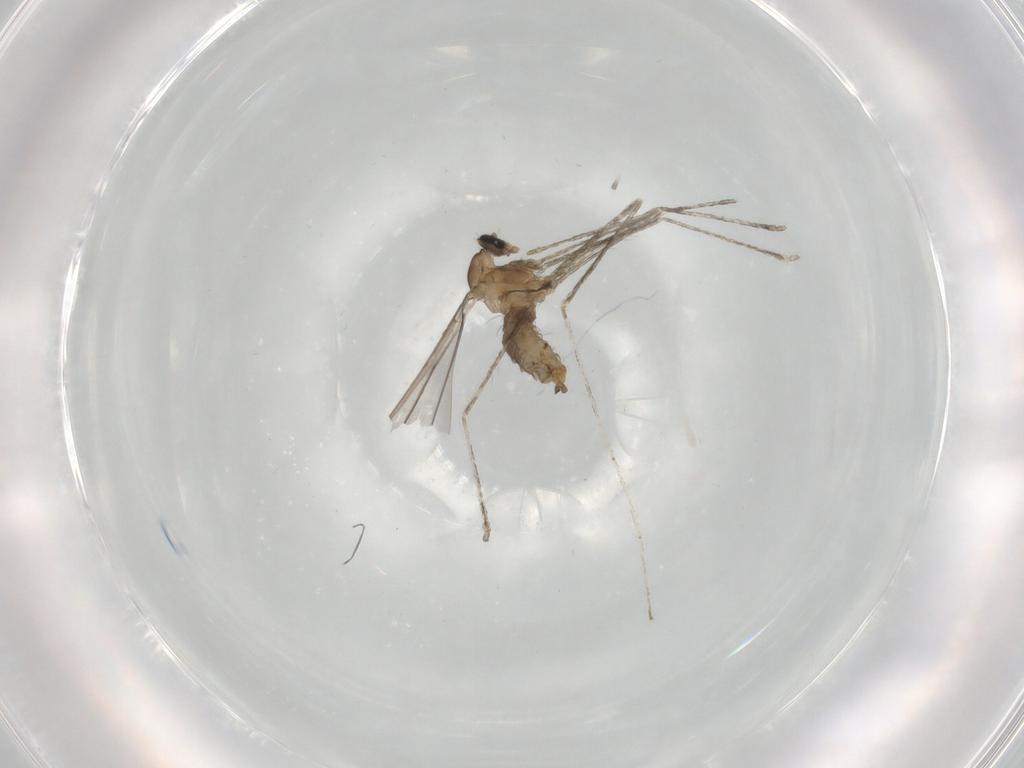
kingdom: Animalia
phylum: Arthropoda
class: Insecta
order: Diptera
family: Cecidomyiidae
